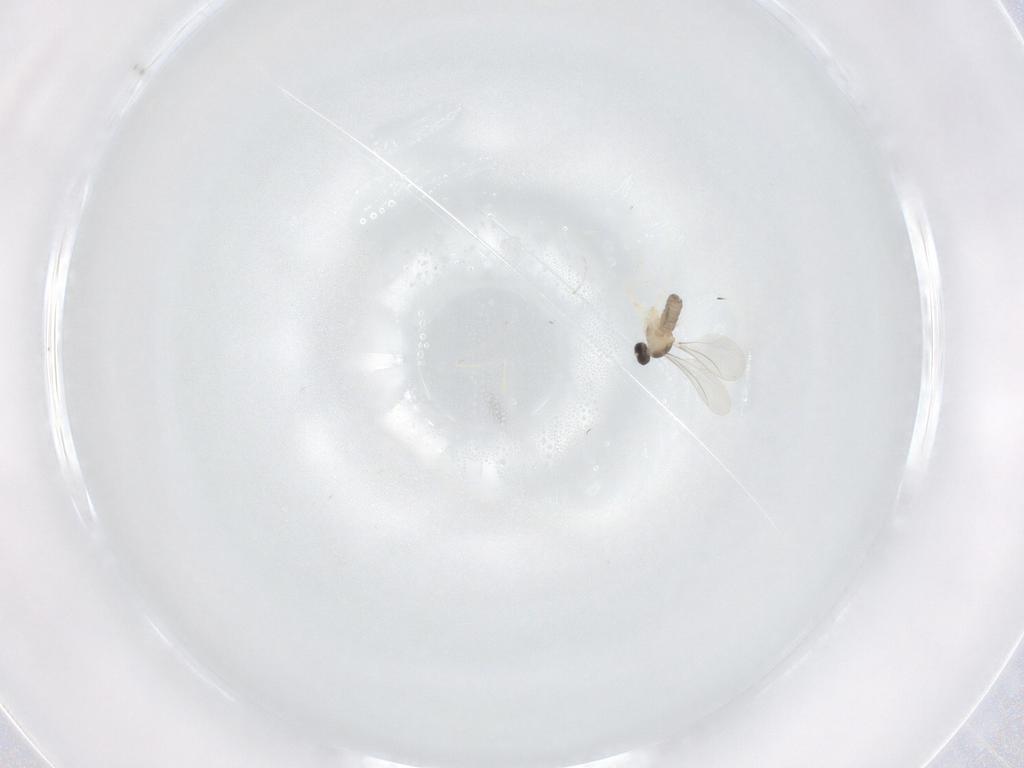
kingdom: Animalia
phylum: Arthropoda
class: Insecta
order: Diptera
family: Cecidomyiidae
